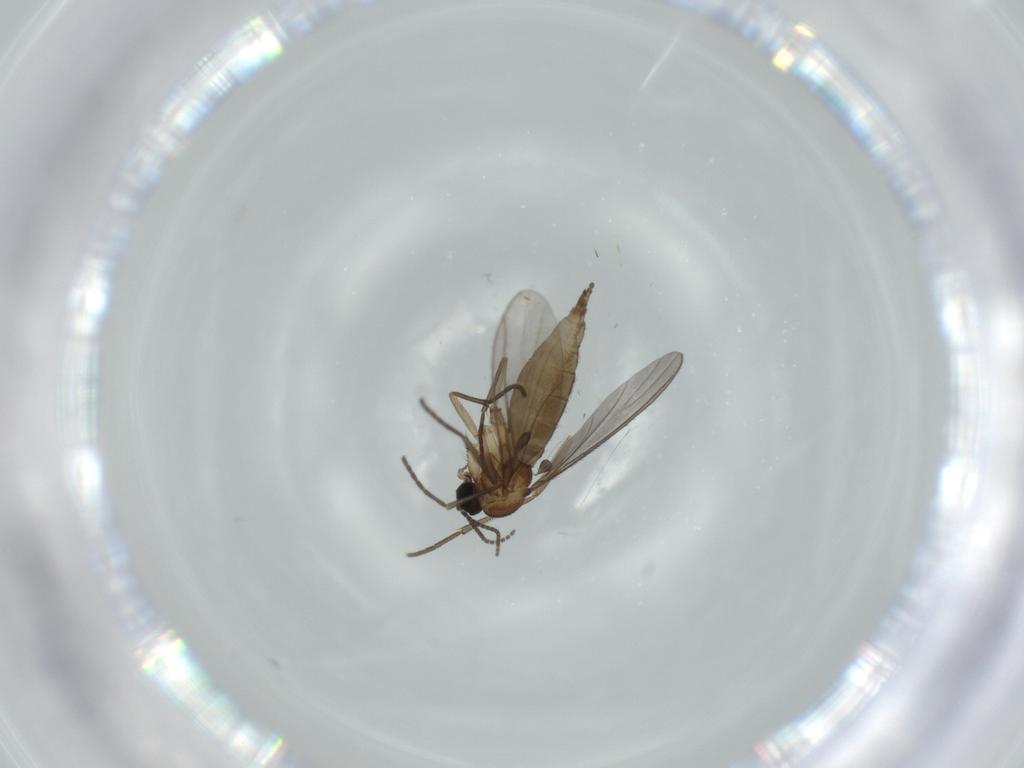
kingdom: Animalia
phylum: Arthropoda
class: Insecta
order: Diptera
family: Sciaridae
